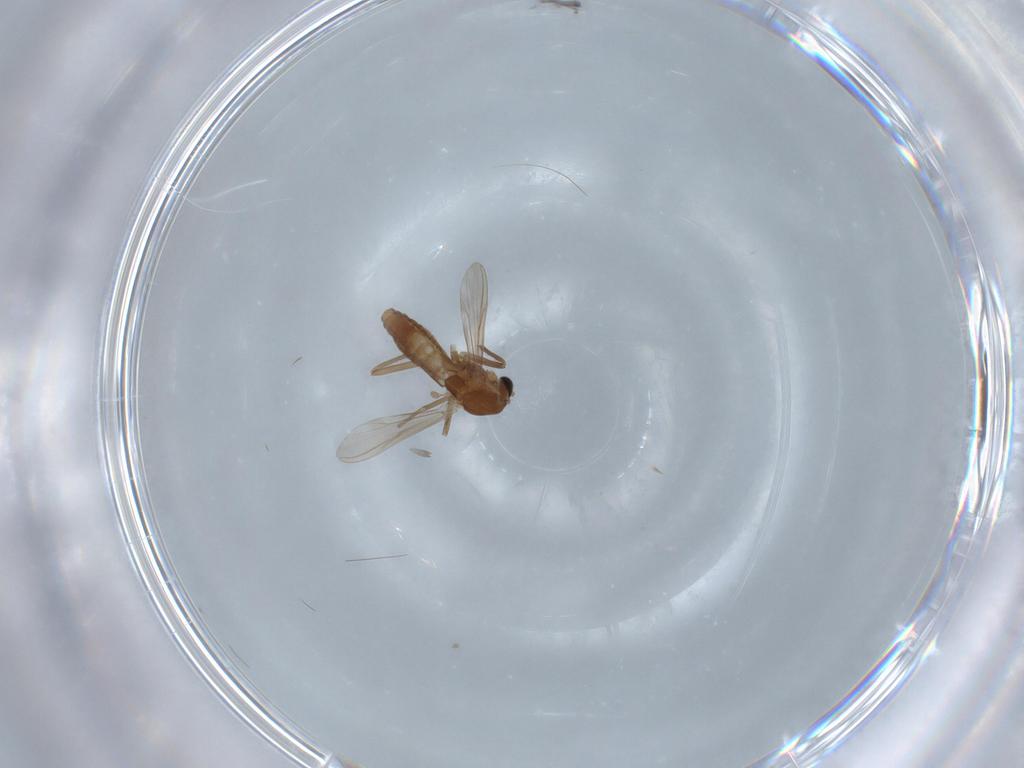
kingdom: Animalia
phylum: Arthropoda
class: Insecta
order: Diptera
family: Chironomidae
